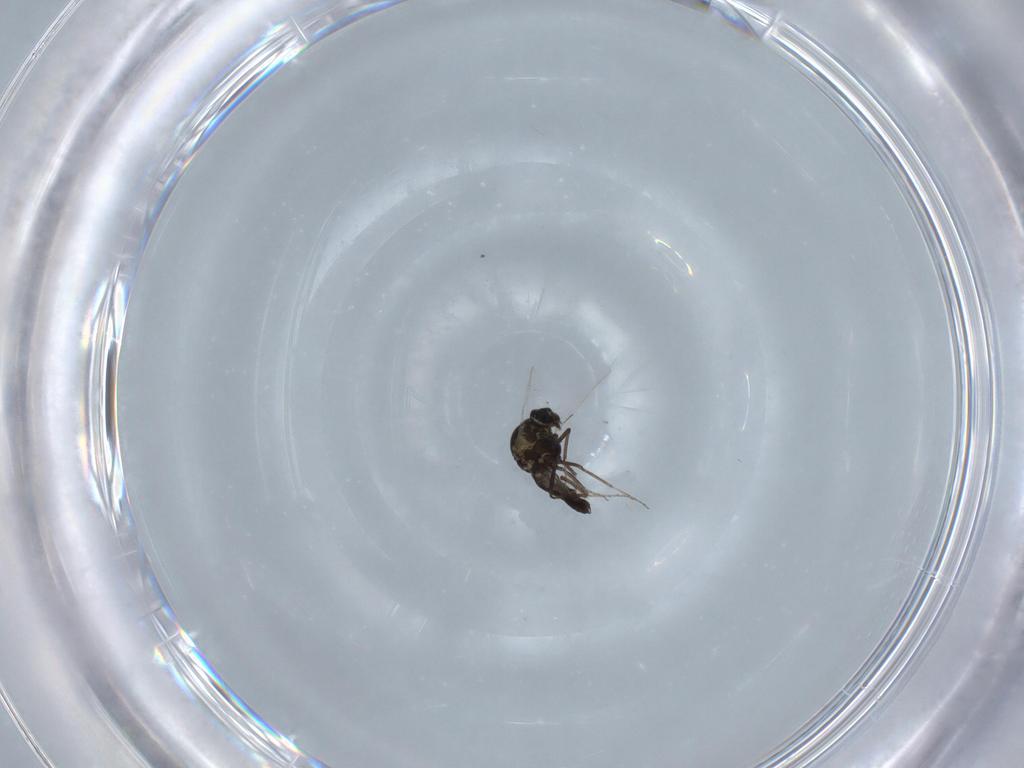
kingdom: Animalia
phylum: Arthropoda
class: Insecta
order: Diptera
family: Ceratopogonidae
